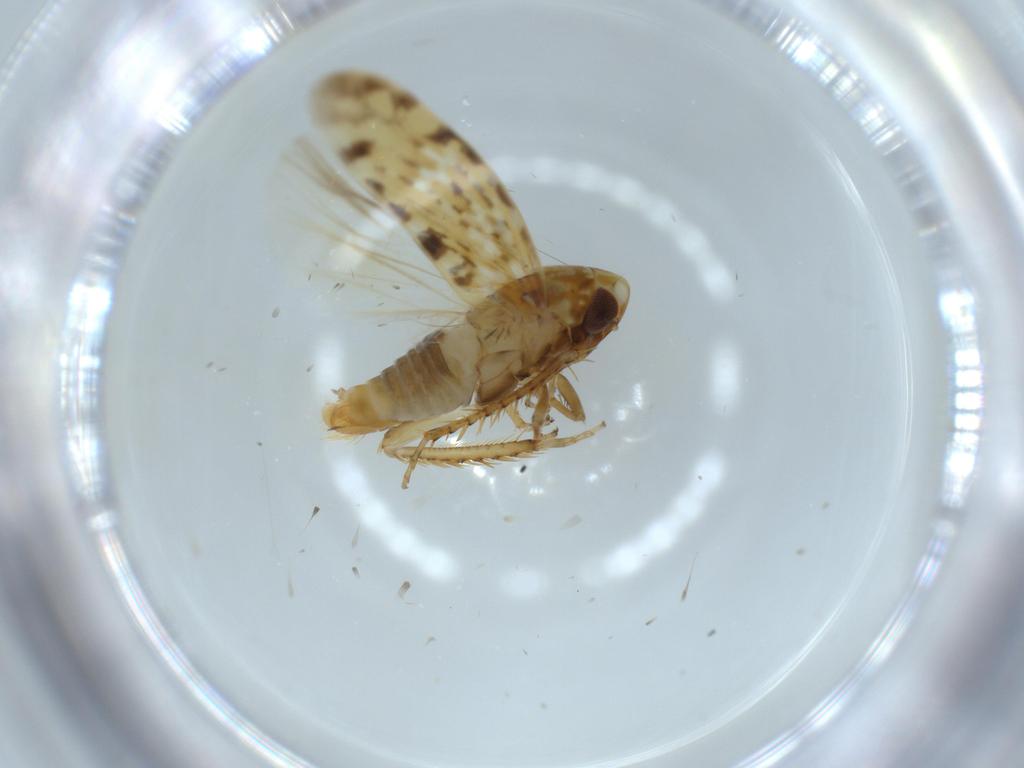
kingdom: Animalia
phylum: Arthropoda
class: Insecta
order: Hemiptera
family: Cicadellidae
